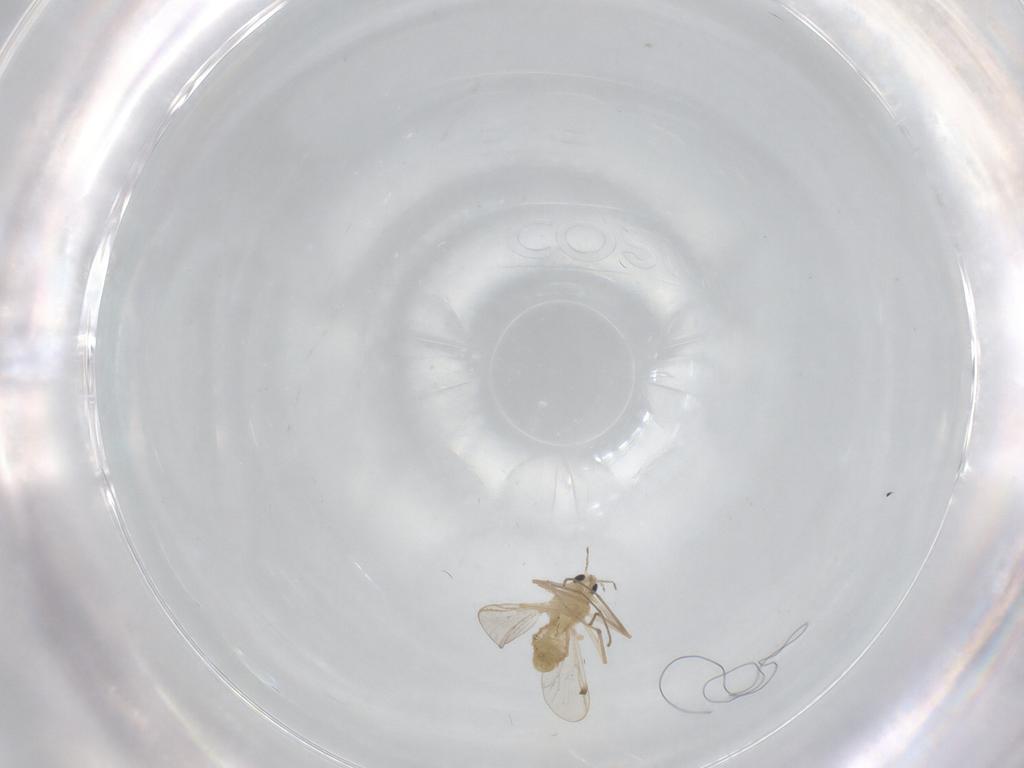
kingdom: Animalia
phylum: Arthropoda
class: Insecta
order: Diptera
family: Chironomidae
